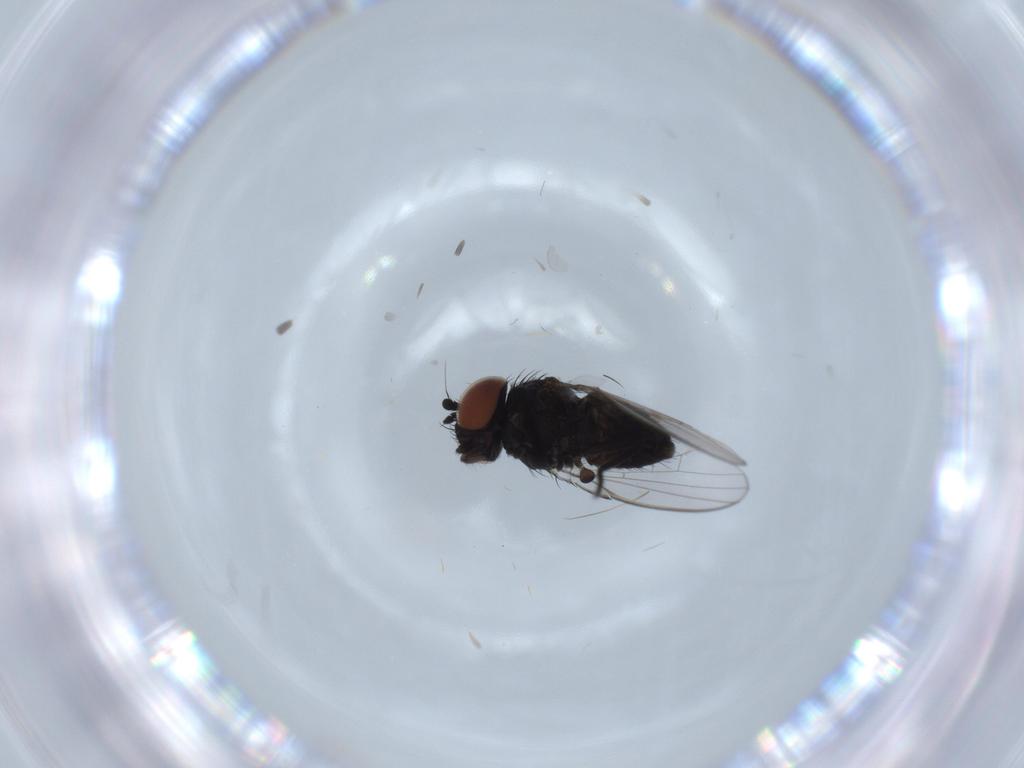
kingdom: Animalia
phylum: Arthropoda
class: Insecta
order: Diptera
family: Milichiidae
